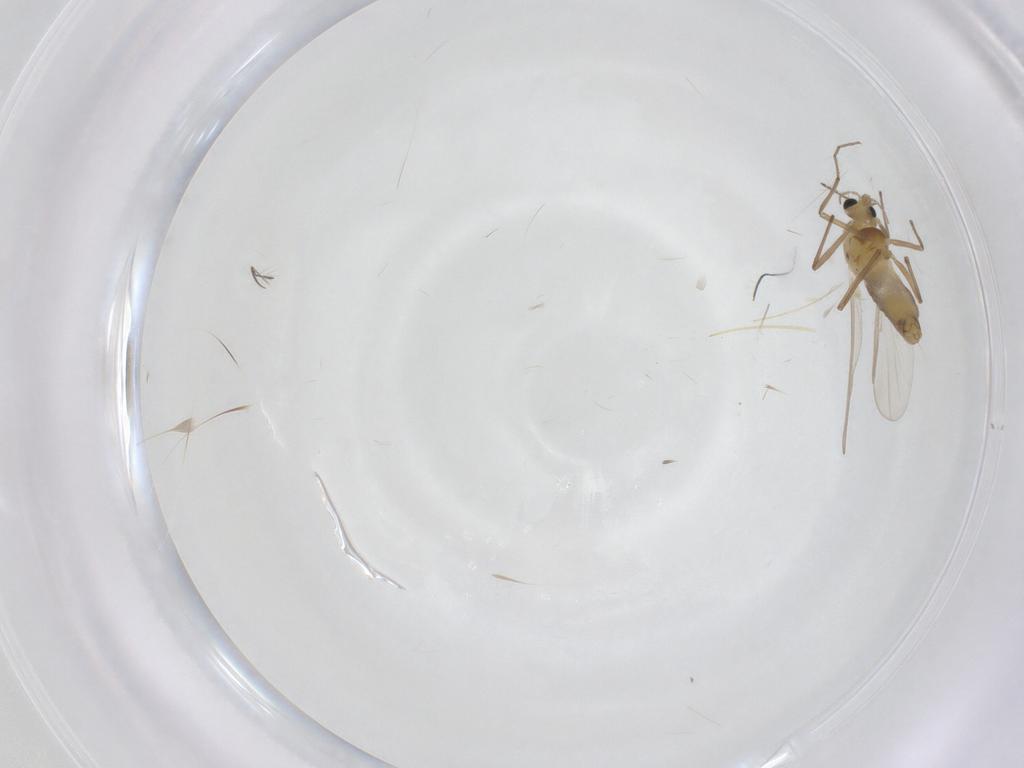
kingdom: Animalia
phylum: Arthropoda
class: Insecta
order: Diptera
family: Chironomidae
